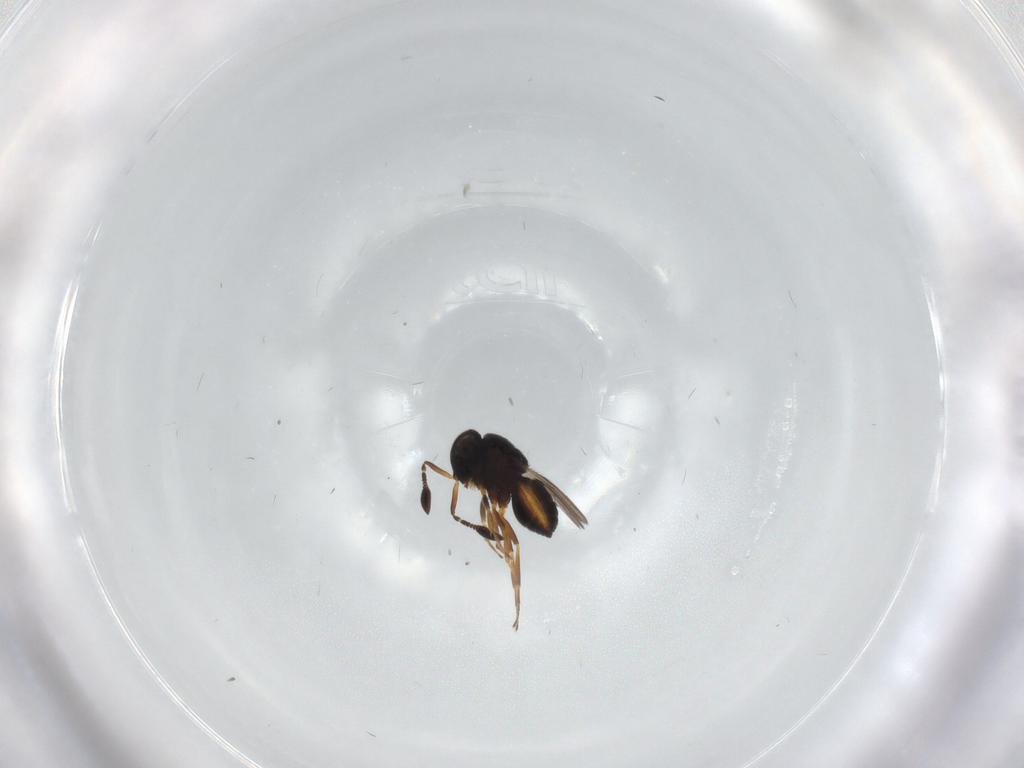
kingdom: Animalia
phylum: Arthropoda
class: Insecta
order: Hymenoptera
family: Scelionidae
